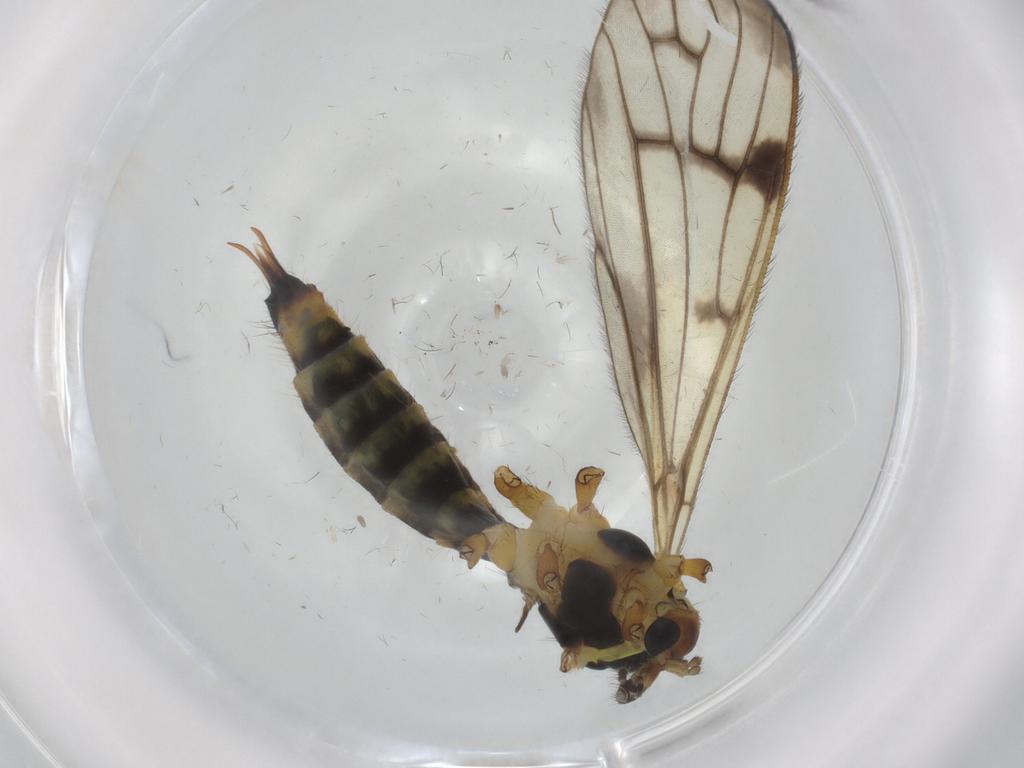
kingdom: Animalia
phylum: Arthropoda
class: Insecta
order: Diptera
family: Limoniidae
